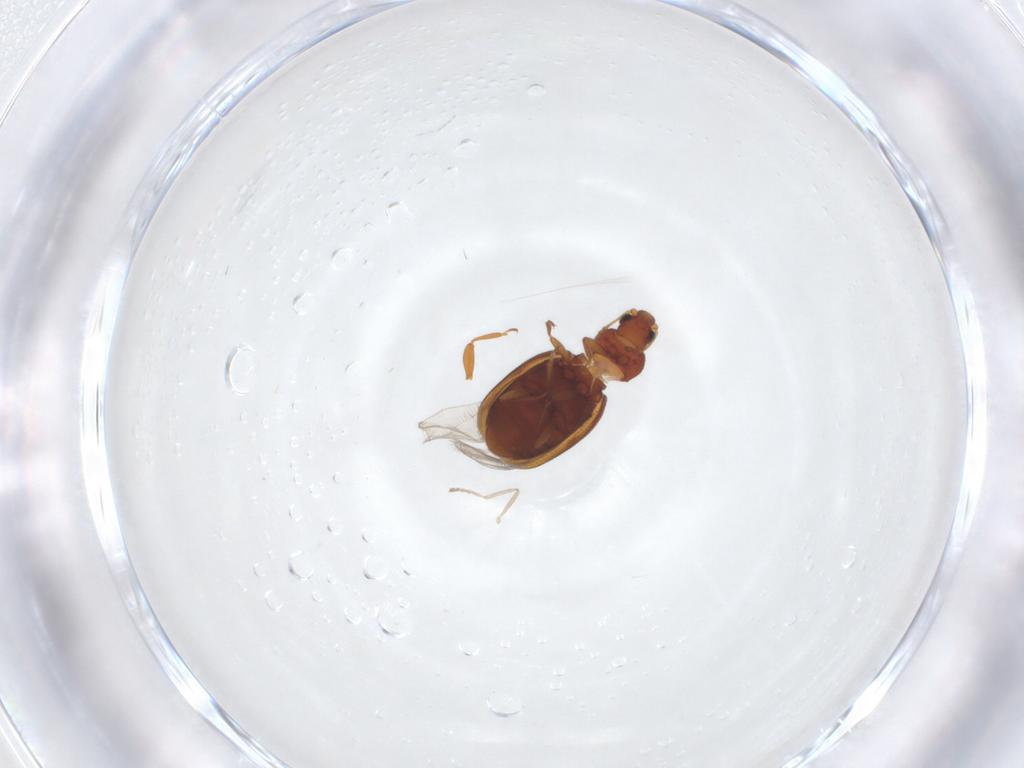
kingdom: Animalia
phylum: Arthropoda
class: Insecta
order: Coleoptera
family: Latridiidae
